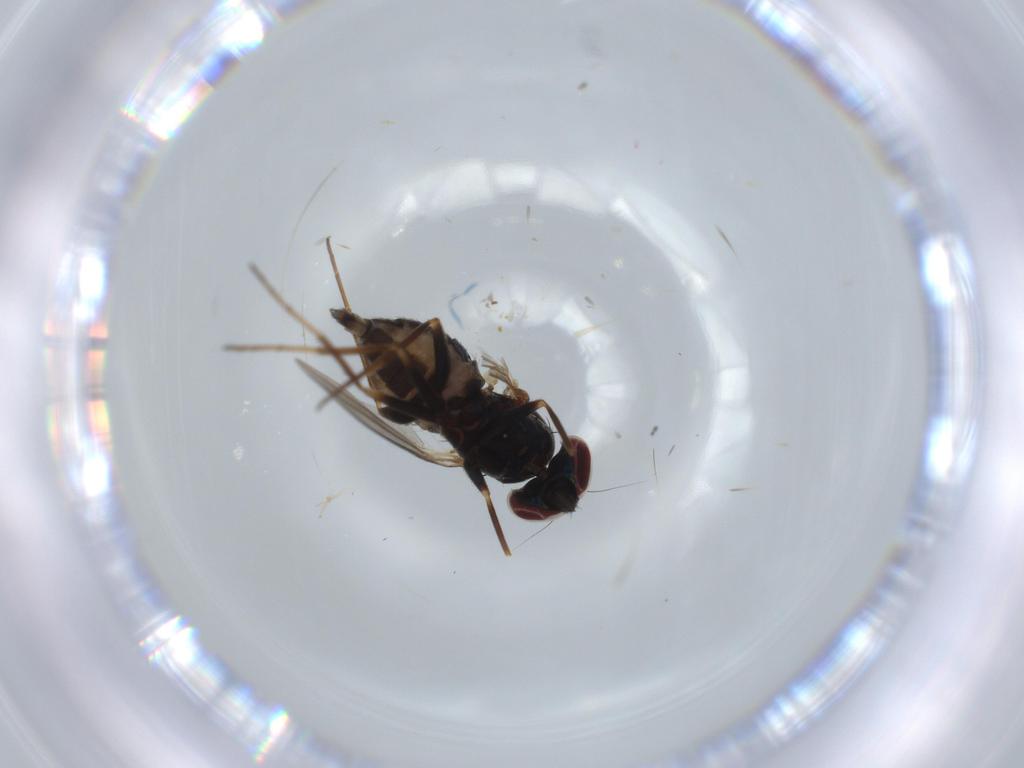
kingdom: Animalia
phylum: Arthropoda
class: Insecta
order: Diptera
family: Dolichopodidae
